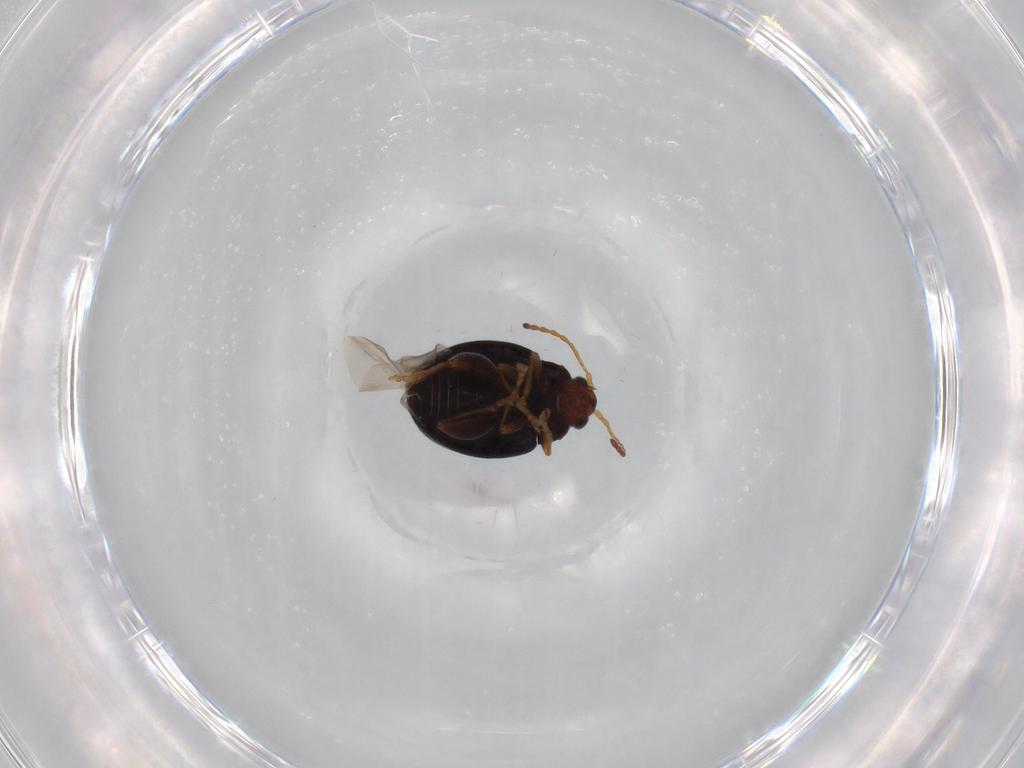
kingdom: Animalia
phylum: Arthropoda
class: Insecta
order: Coleoptera
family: Chrysomelidae
